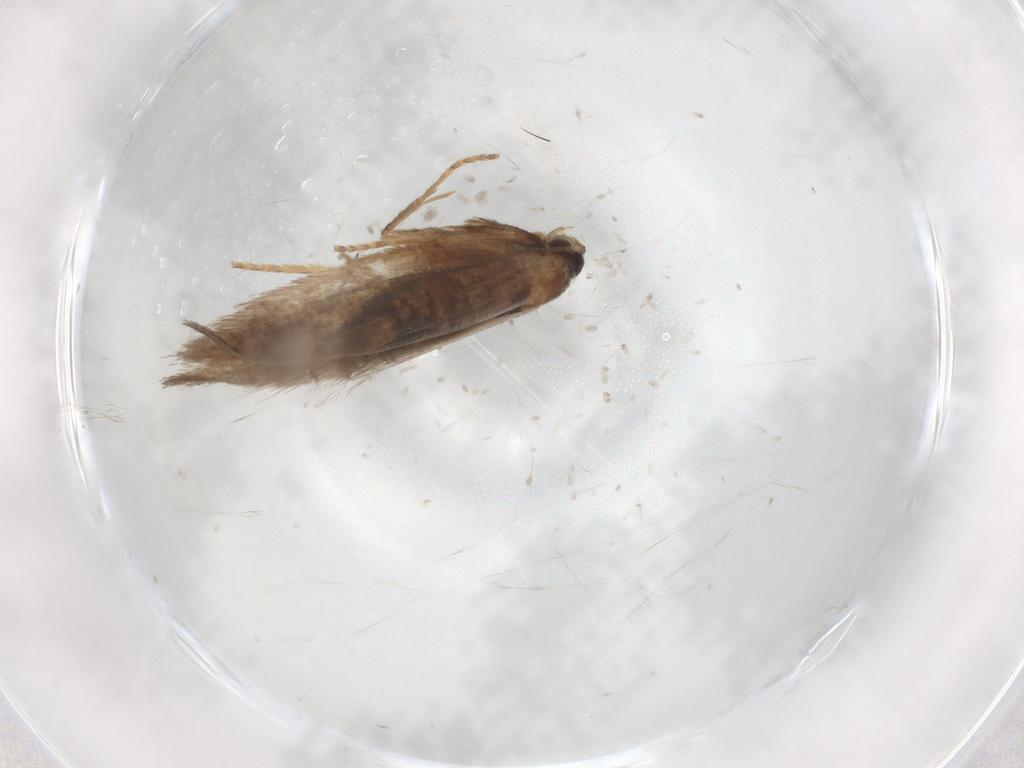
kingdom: Animalia
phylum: Arthropoda
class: Insecta
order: Lepidoptera
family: Nepticulidae
